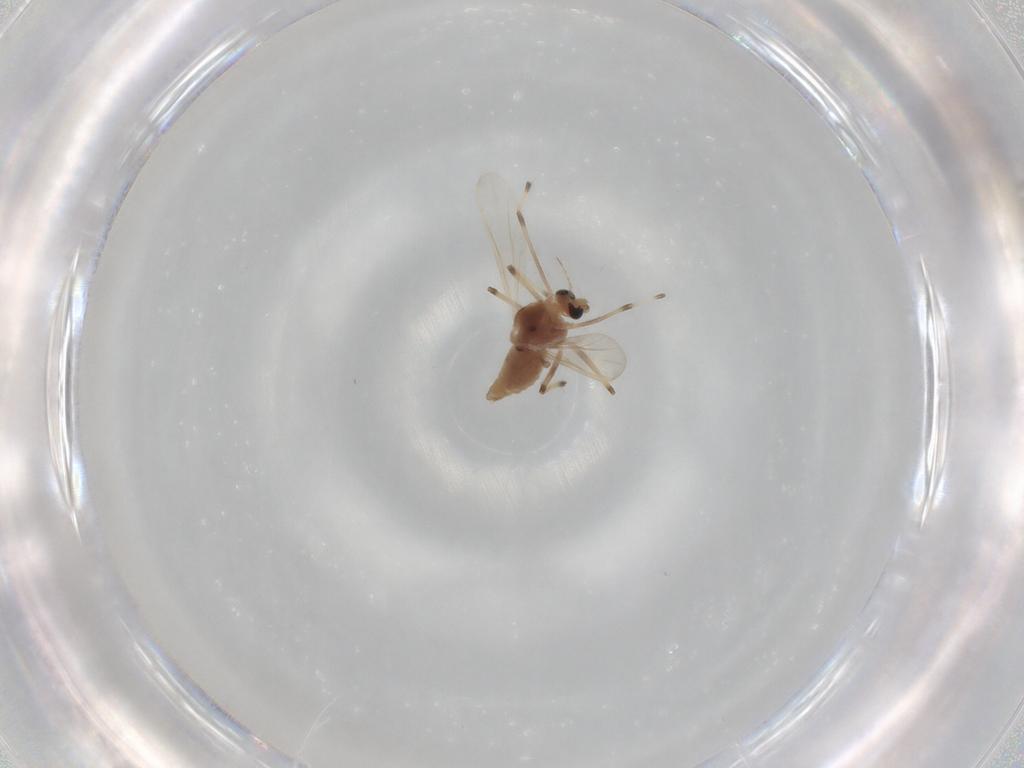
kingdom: Animalia
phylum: Arthropoda
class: Insecta
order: Diptera
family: Chironomidae
